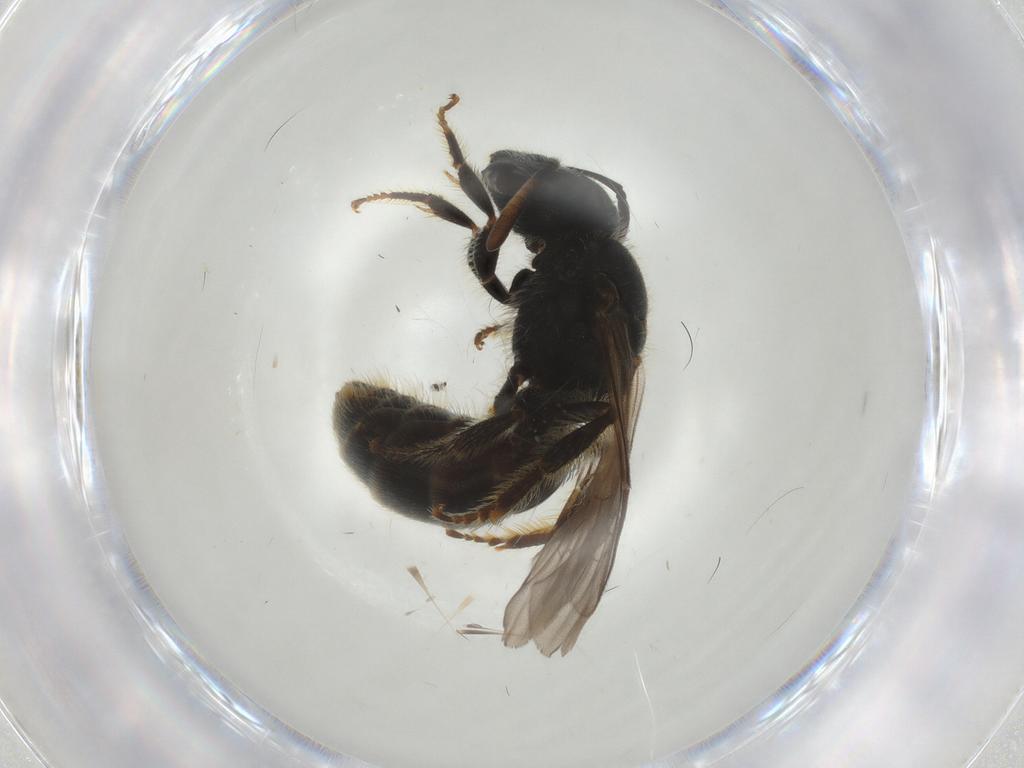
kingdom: Animalia
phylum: Arthropoda
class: Insecta
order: Hymenoptera
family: Halictidae
